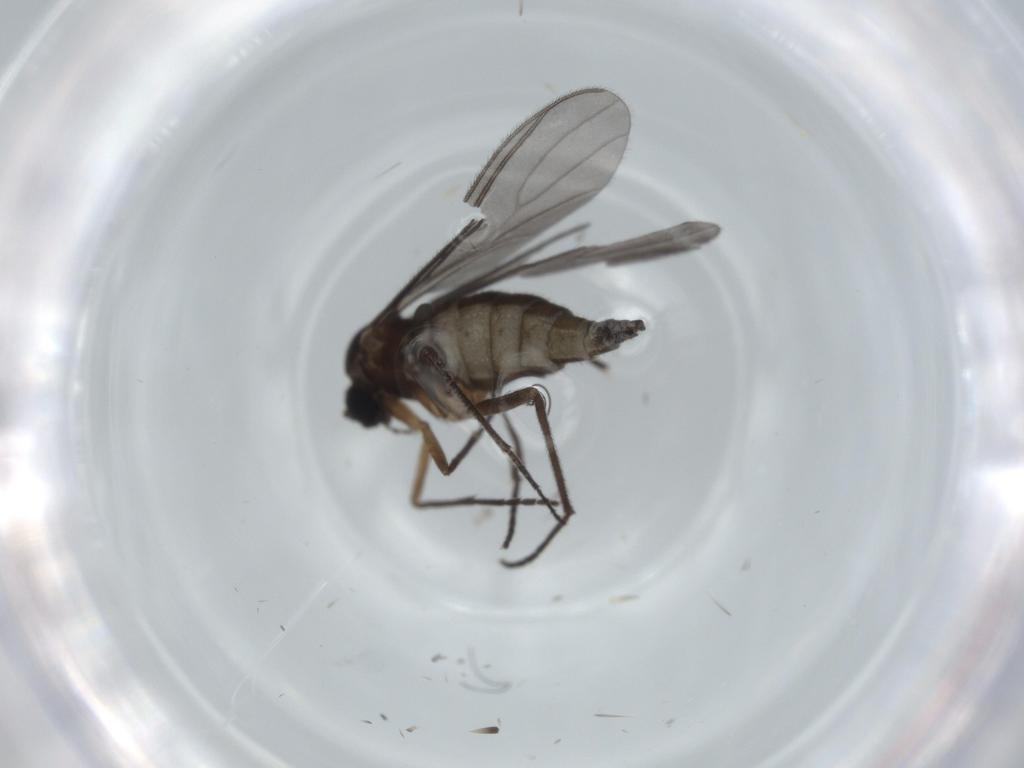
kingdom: Animalia
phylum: Arthropoda
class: Insecta
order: Diptera
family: Sciaridae
